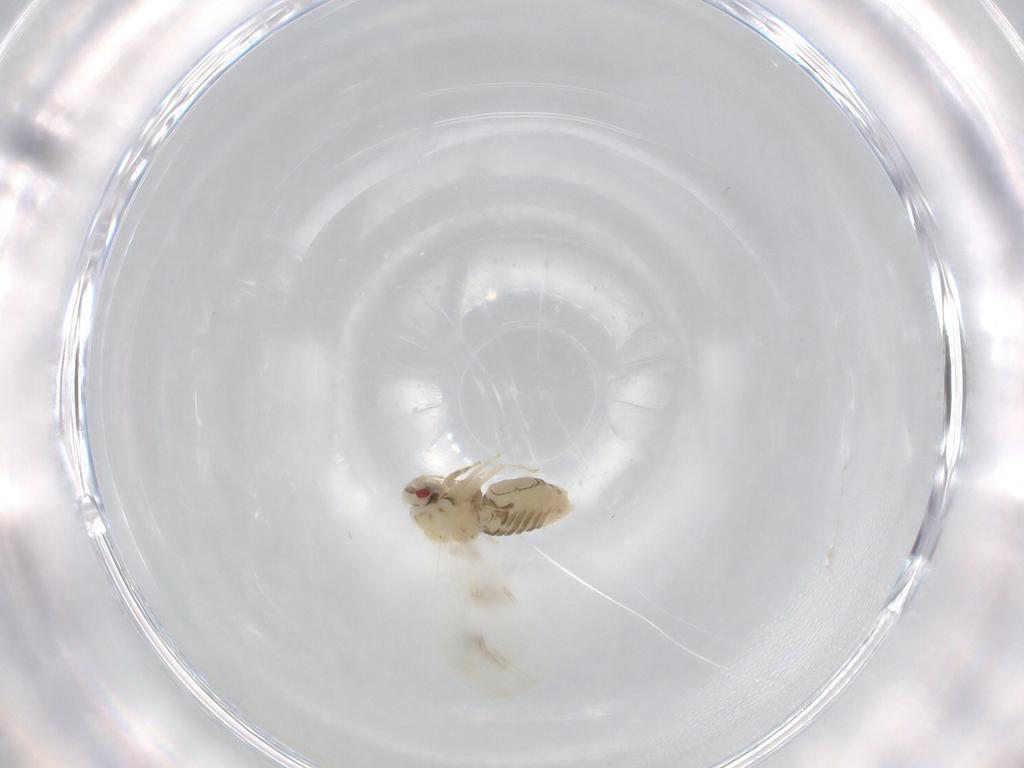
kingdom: Animalia
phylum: Arthropoda
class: Insecta
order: Hemiptera
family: Aleyrodidae
